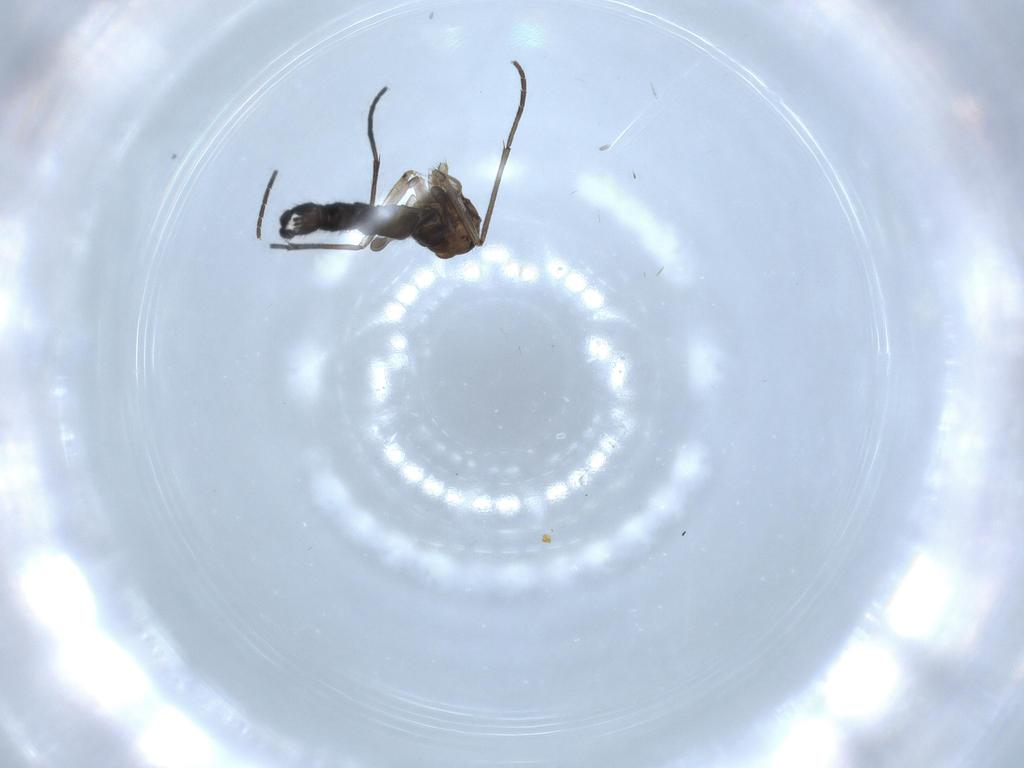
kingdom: Animalia
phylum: Arthropoda
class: Insecta
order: Diptera
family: Sciaridae
